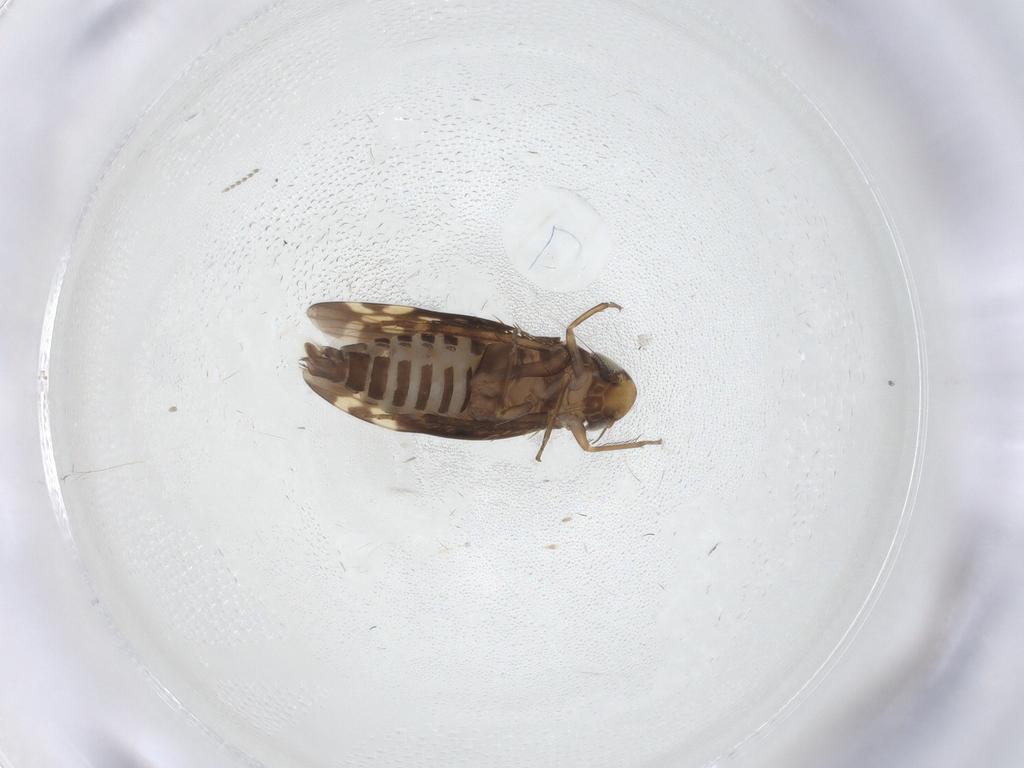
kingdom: Animalia
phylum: Arthropoda
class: Insecta
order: Hemiptera
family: Cicadellidae
